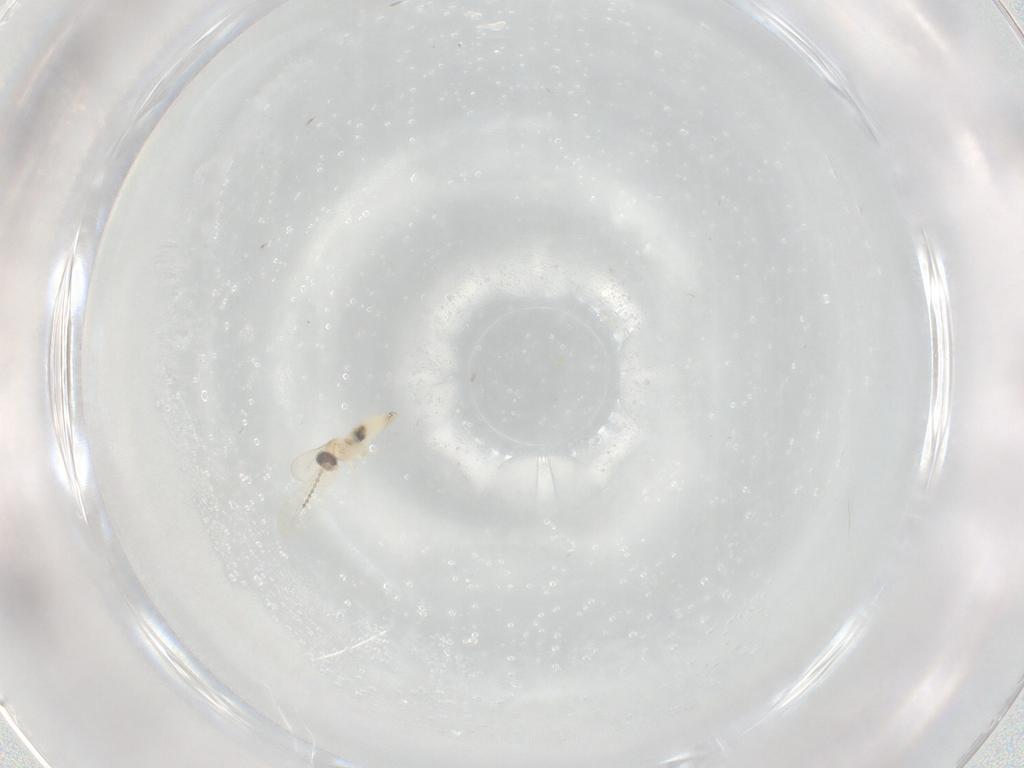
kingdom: Animalia
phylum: Arthropoda
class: Insecta
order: Diptera
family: Cecidomyiidae
